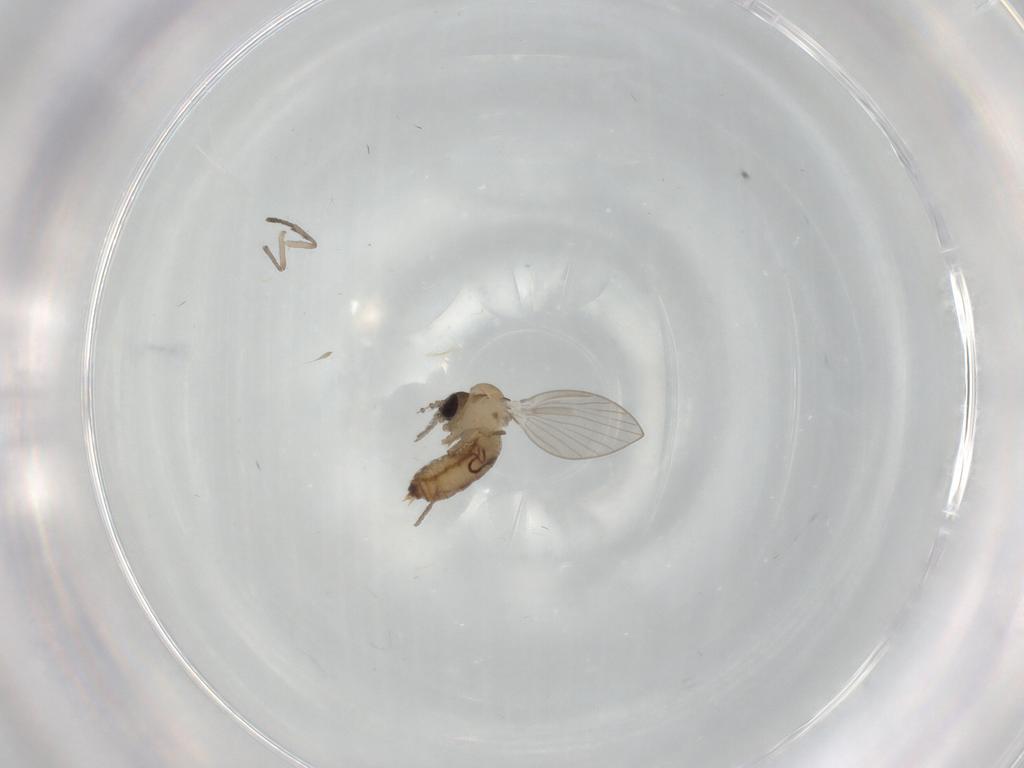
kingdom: Animalia
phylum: Arthropoda
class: Insecta
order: Diptera
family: Psychodidae
